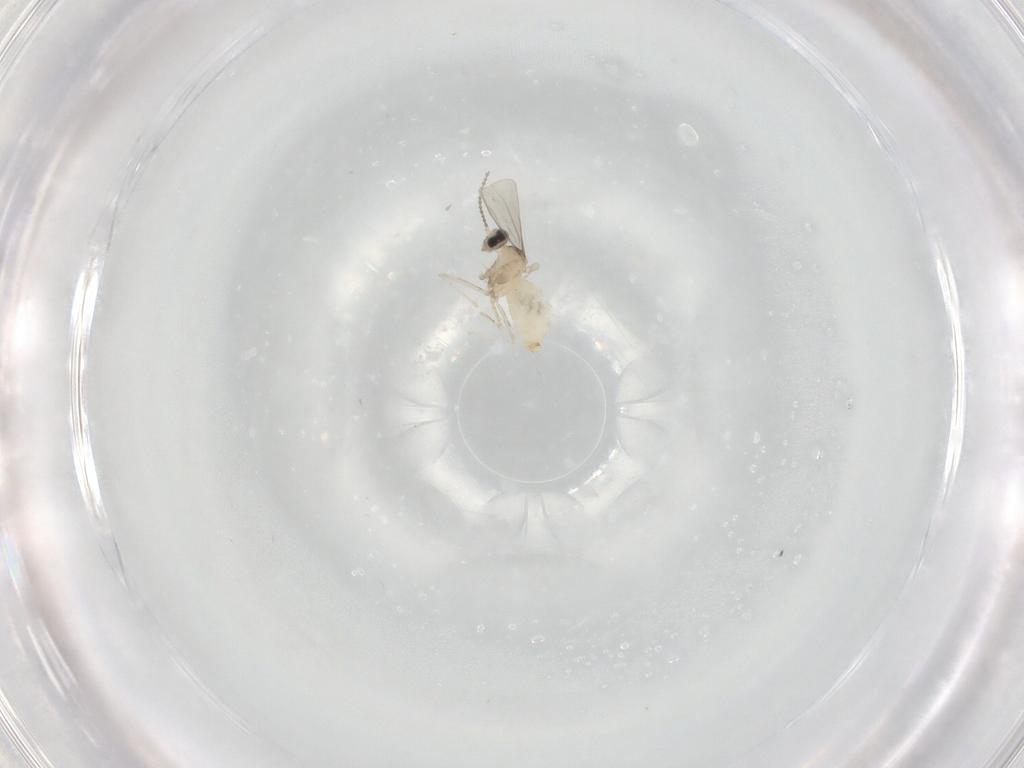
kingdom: Animalia
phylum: Arthropoda
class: Insecta
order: Diptera
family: Cecidomyiidae
